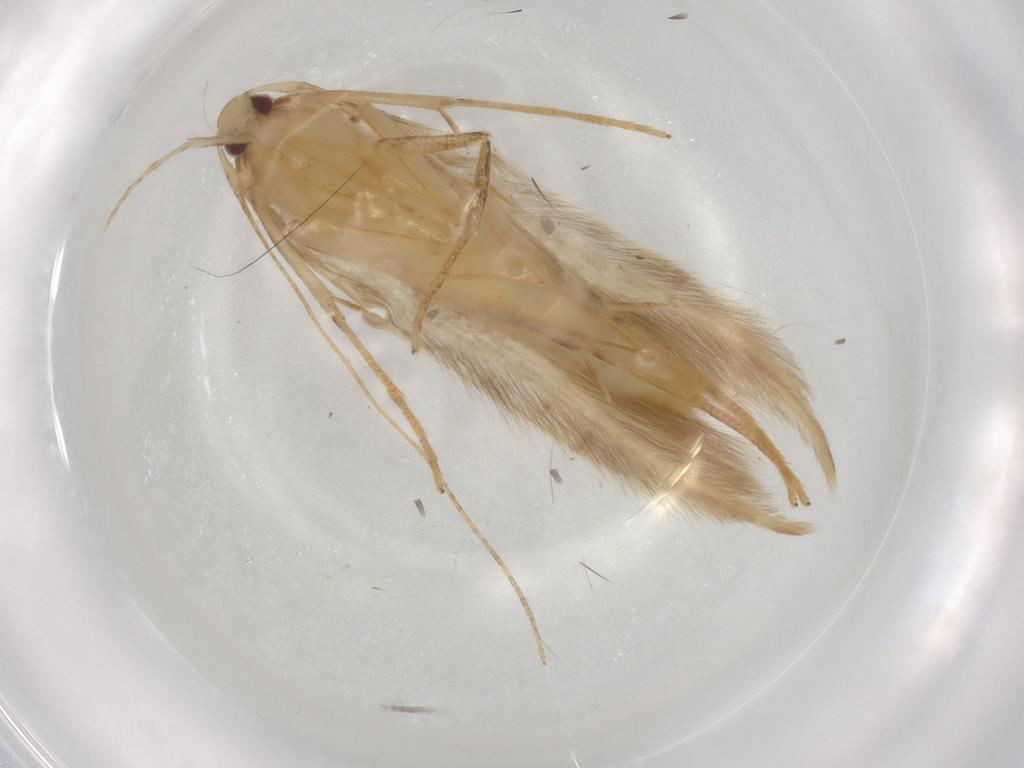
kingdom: Animalia
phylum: Arthropoda
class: Insecta
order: Lepidoptera
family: Cosmopterigidae
